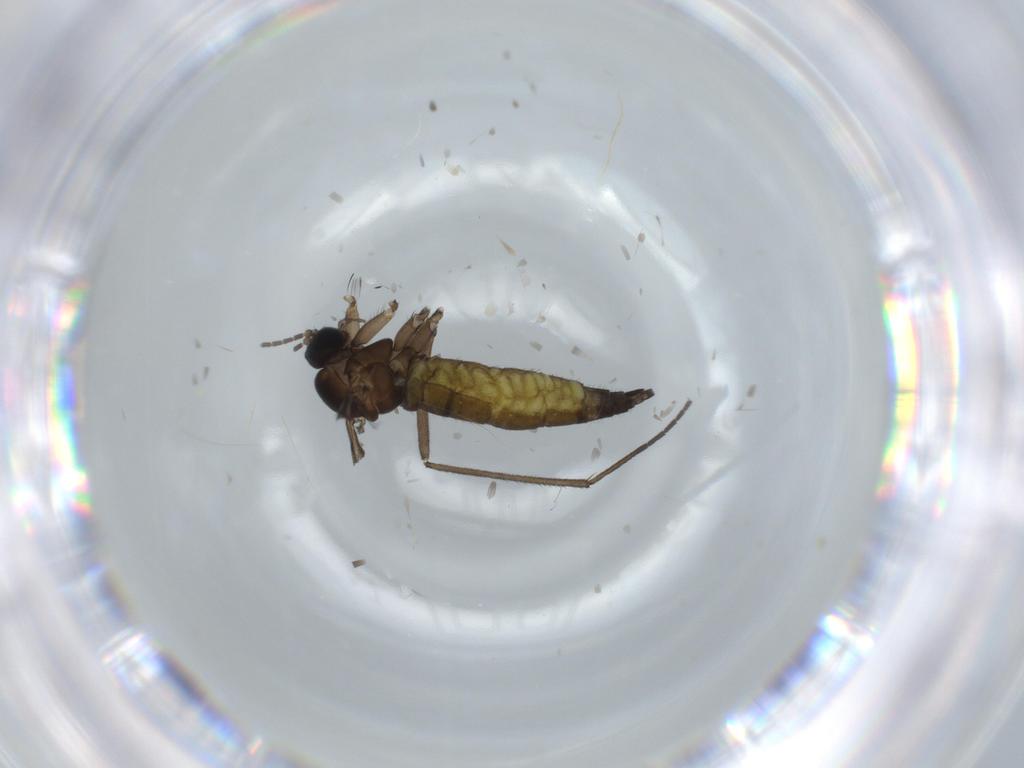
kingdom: Animalia
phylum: Arthropoda
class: Insecta
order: Diptera
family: Sciaridae
